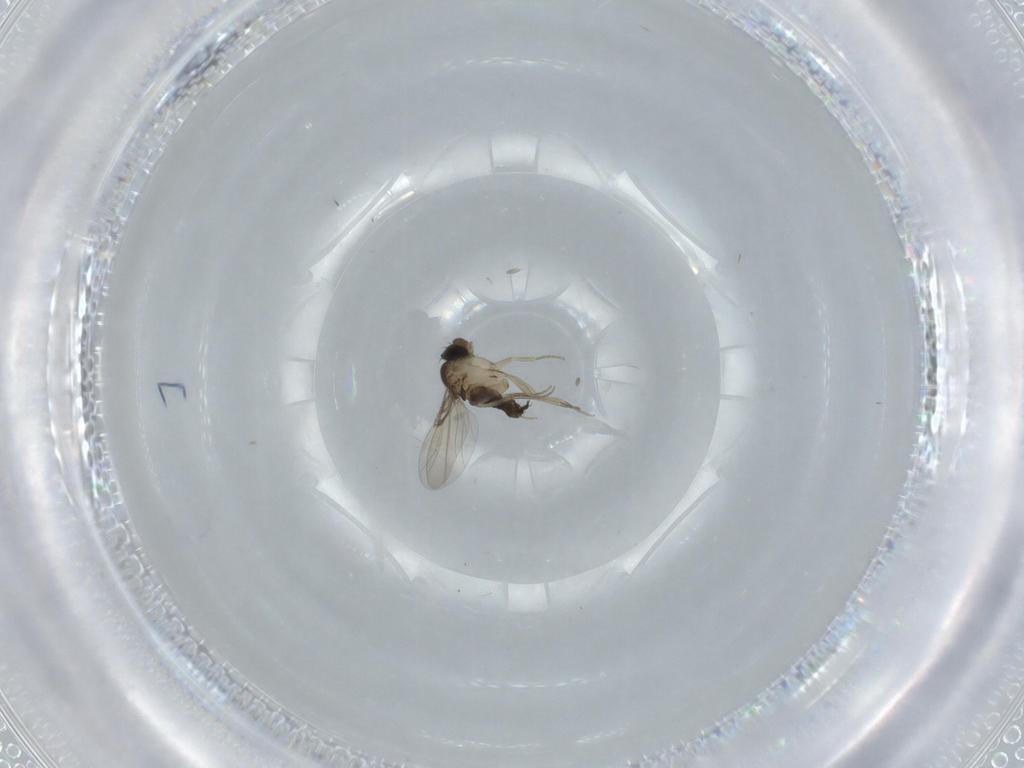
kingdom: Animalia
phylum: Arthropoda
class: Insecta
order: Diptera
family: Phoridae
